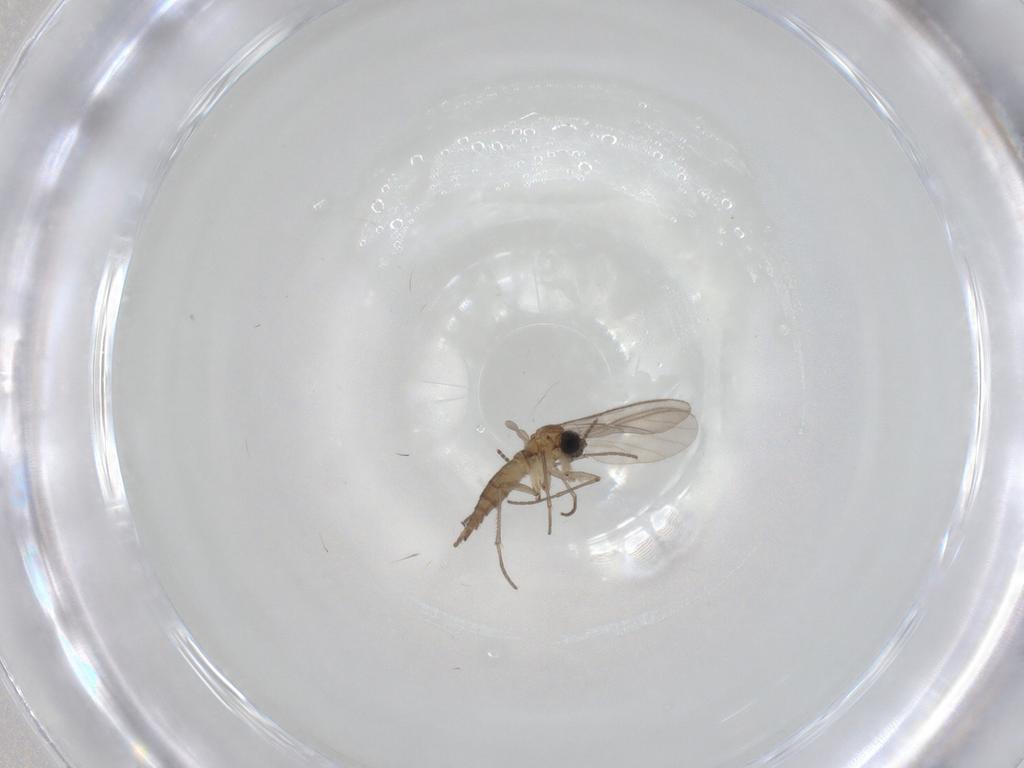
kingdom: Animalia
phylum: Arthropoda
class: Insecta
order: Diptera
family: Sciaridae
